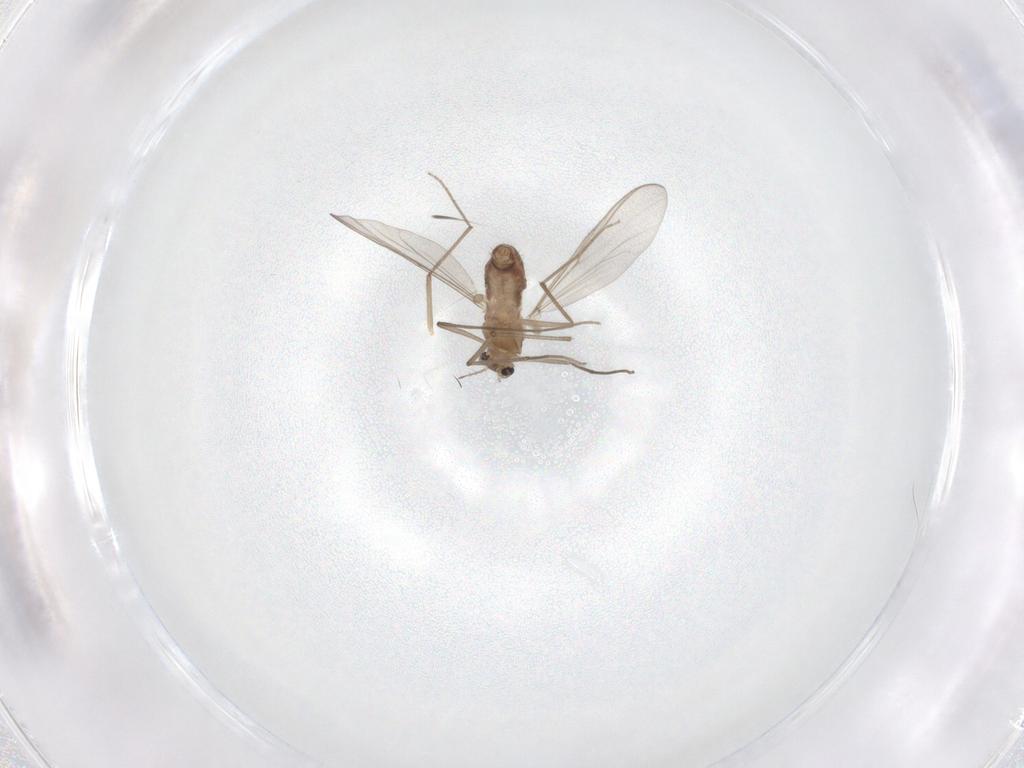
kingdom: Animalia
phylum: Arthropoda
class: Insecta
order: Diptera
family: Chironomidae
